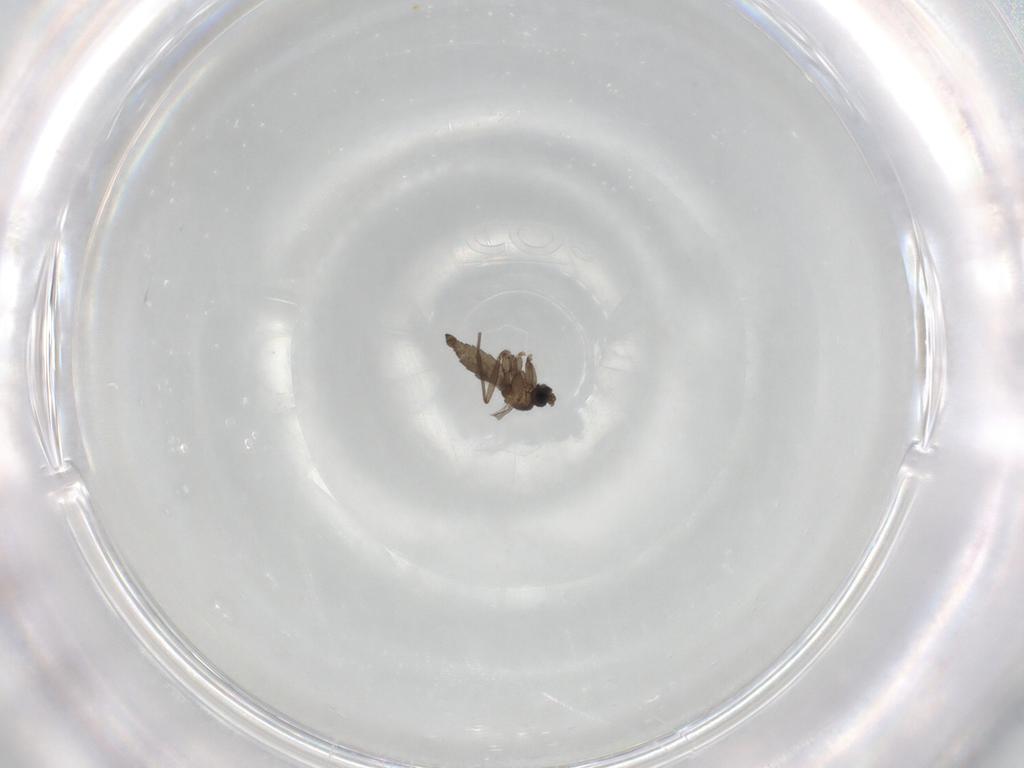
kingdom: Animalia
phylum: Arthropoda
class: Insecta
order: Diptera
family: Sciaridae
